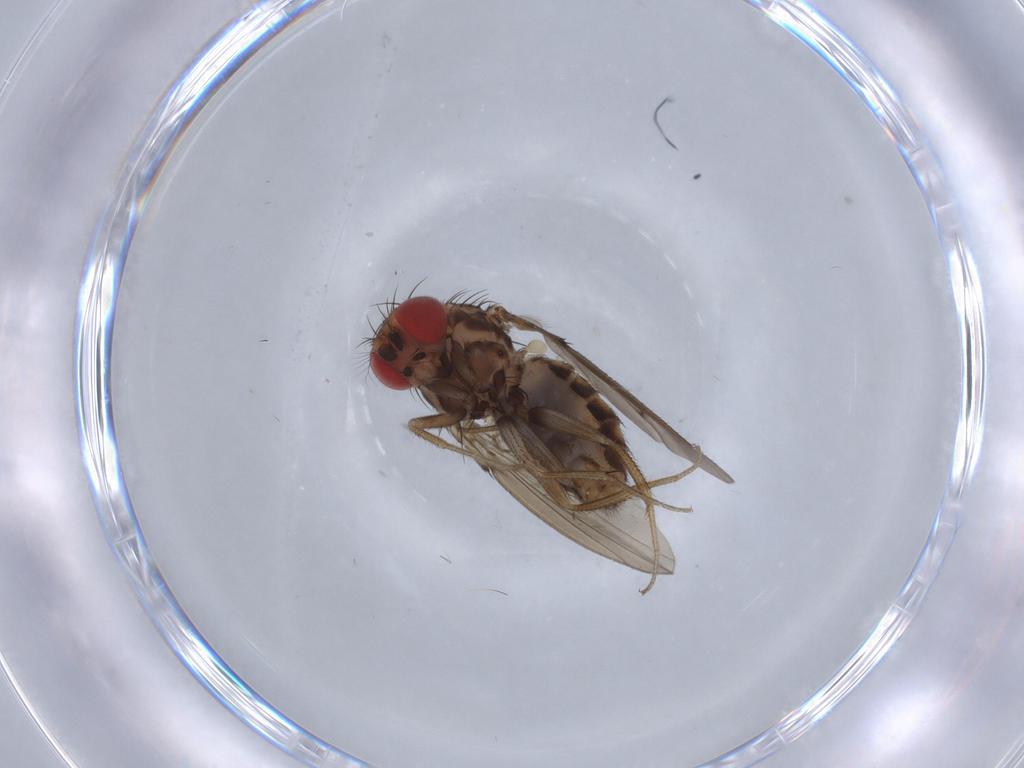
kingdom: Animalia
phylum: Arthropoda
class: Insecta
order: Diptera
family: Drosophilidae
